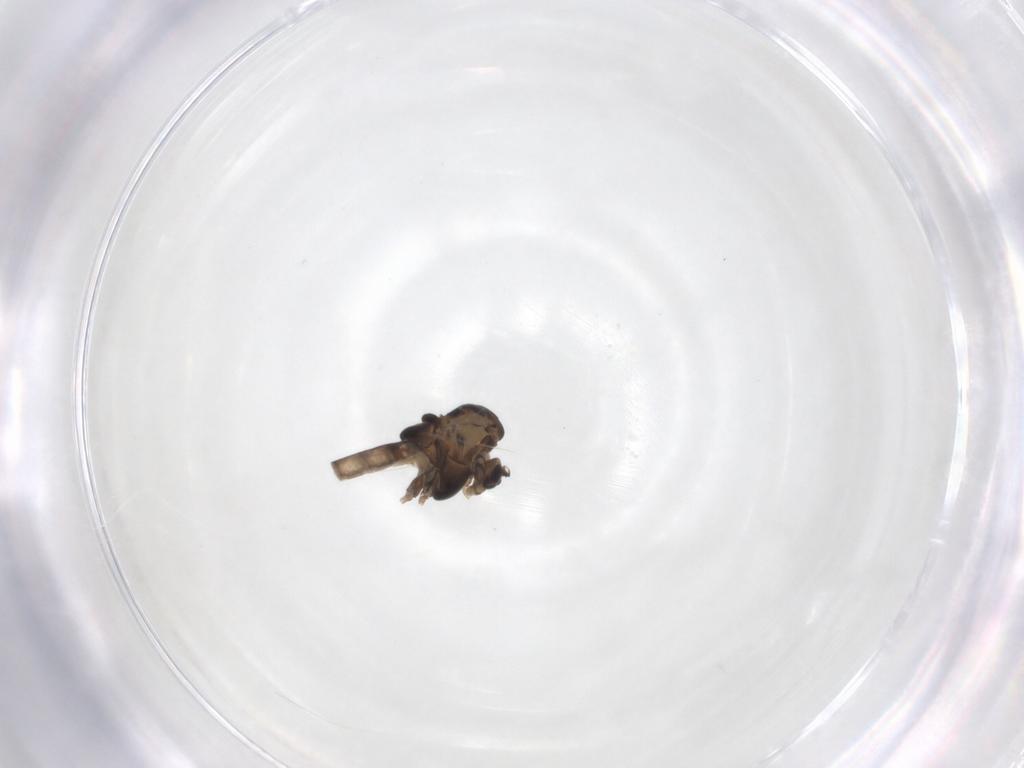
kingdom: Animalia
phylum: Arthropoda
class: Insecta
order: Diptera
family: Chironomidae
